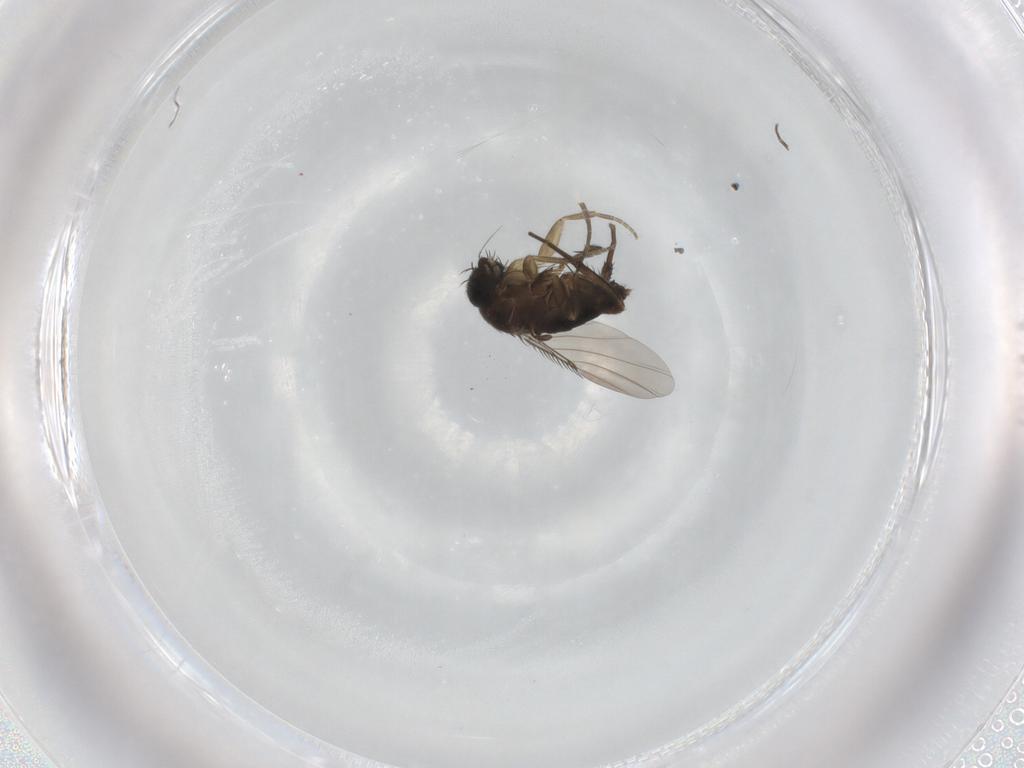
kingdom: Animalia
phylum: Arthropoda
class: Insecta
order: Diptera
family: Phoridae
